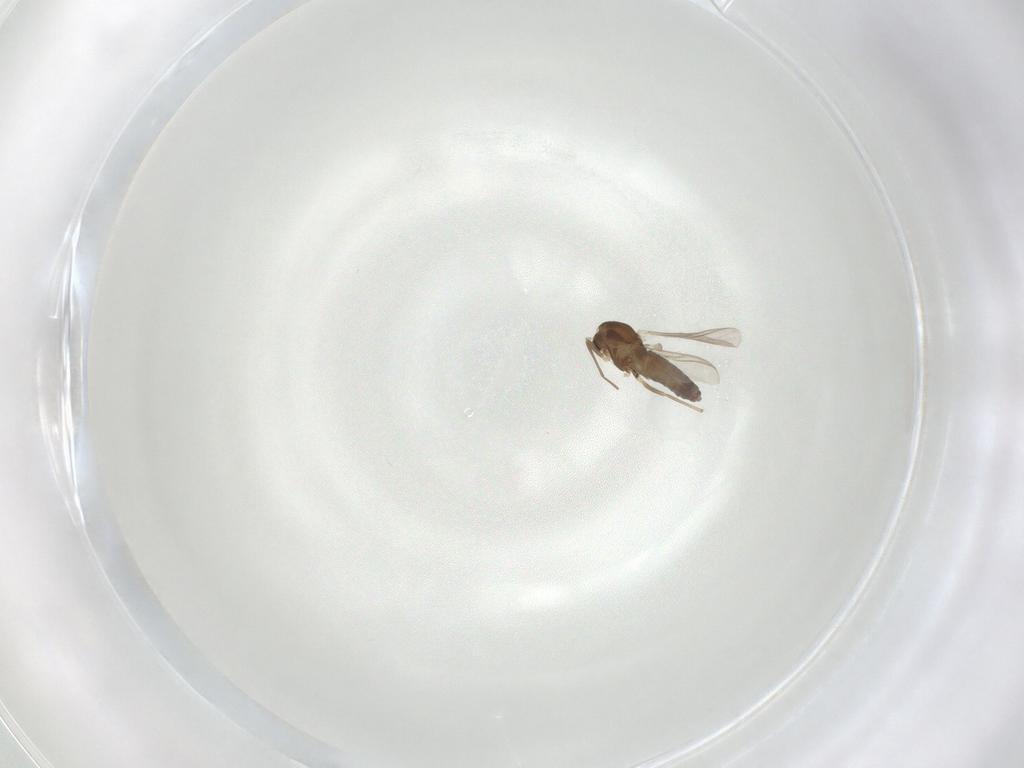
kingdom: Animalia
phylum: Arthropoda
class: Insecta
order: Diptera
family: Chironomidae
